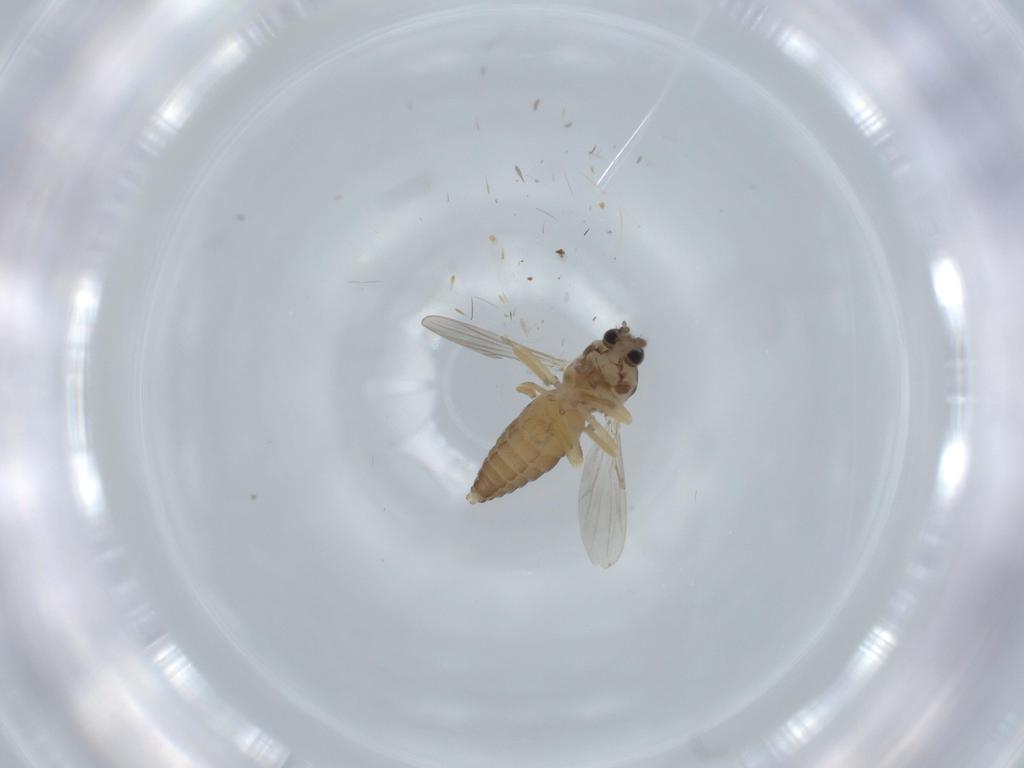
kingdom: Animalia
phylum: Arthropoda
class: Insecta
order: Diptera
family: Ceratopogonidae
